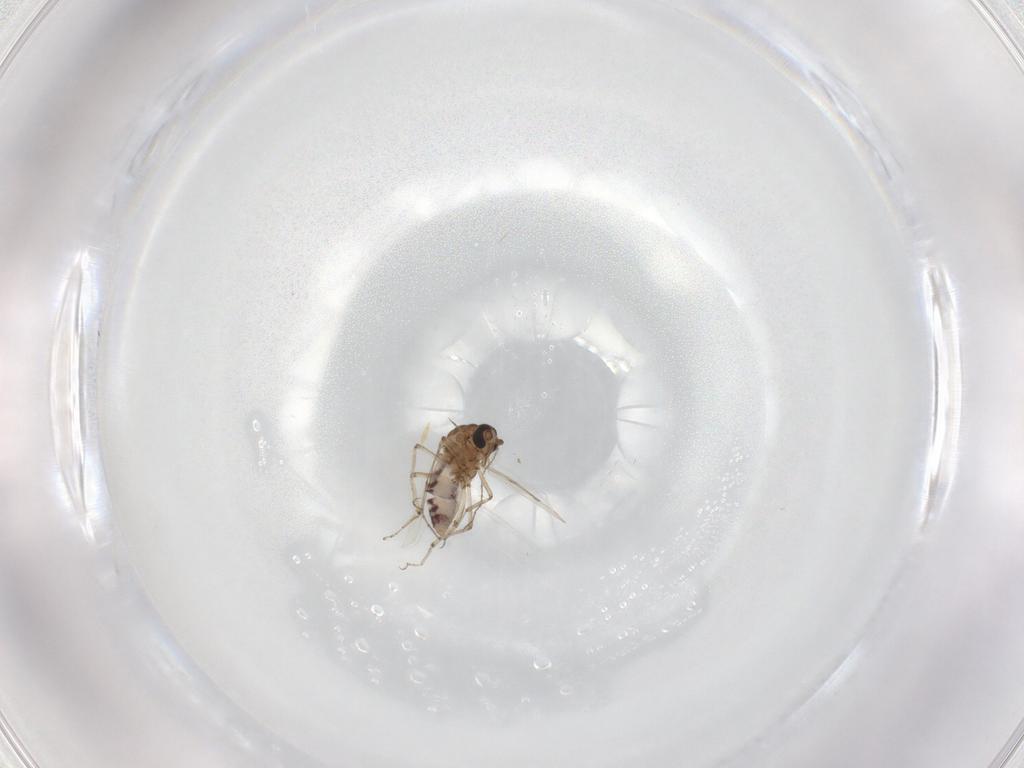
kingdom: Animalia
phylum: Arthropoda
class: Insecta
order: Diptera
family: Ceratopogonidae
